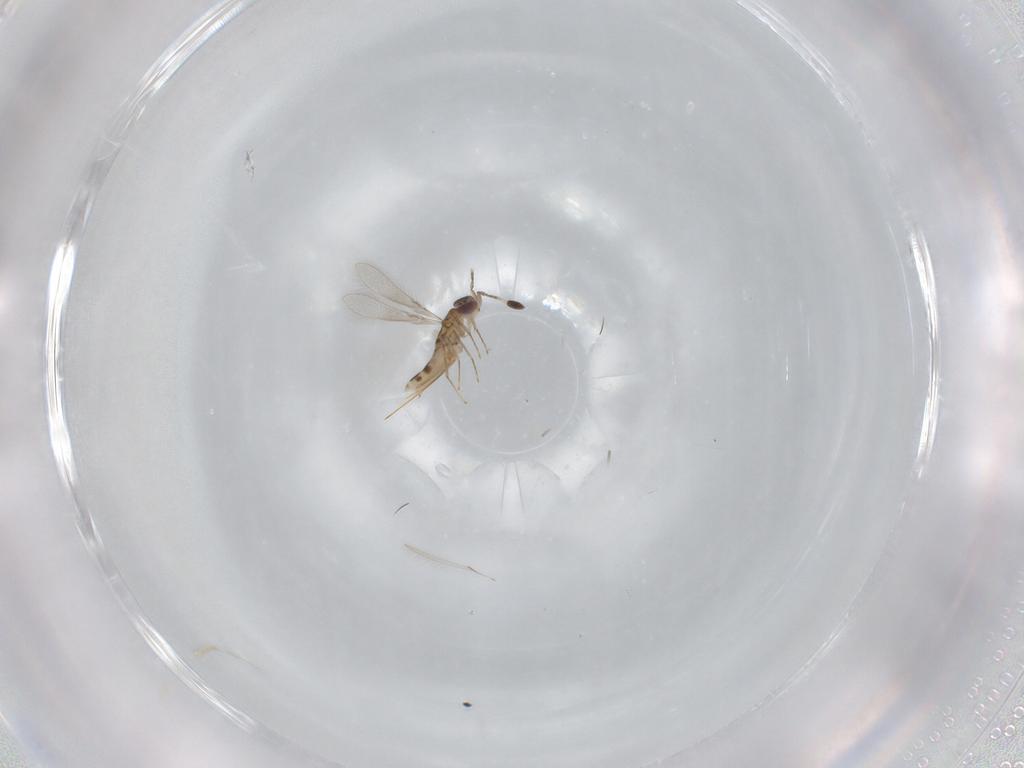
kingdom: Animalia
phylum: Arthropoda
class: Insecta
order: Hymenoptera
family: Mymaridae
